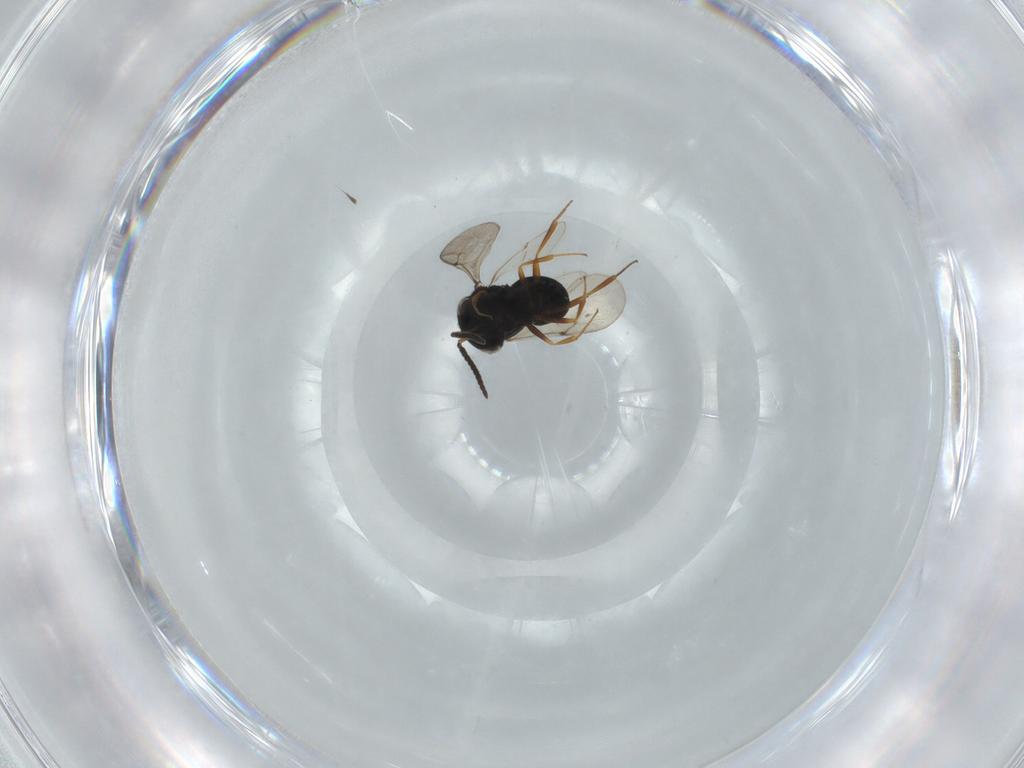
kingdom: Animalia
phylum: Arthropoda
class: Insecta
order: Hymenoptera
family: Scelionidae
